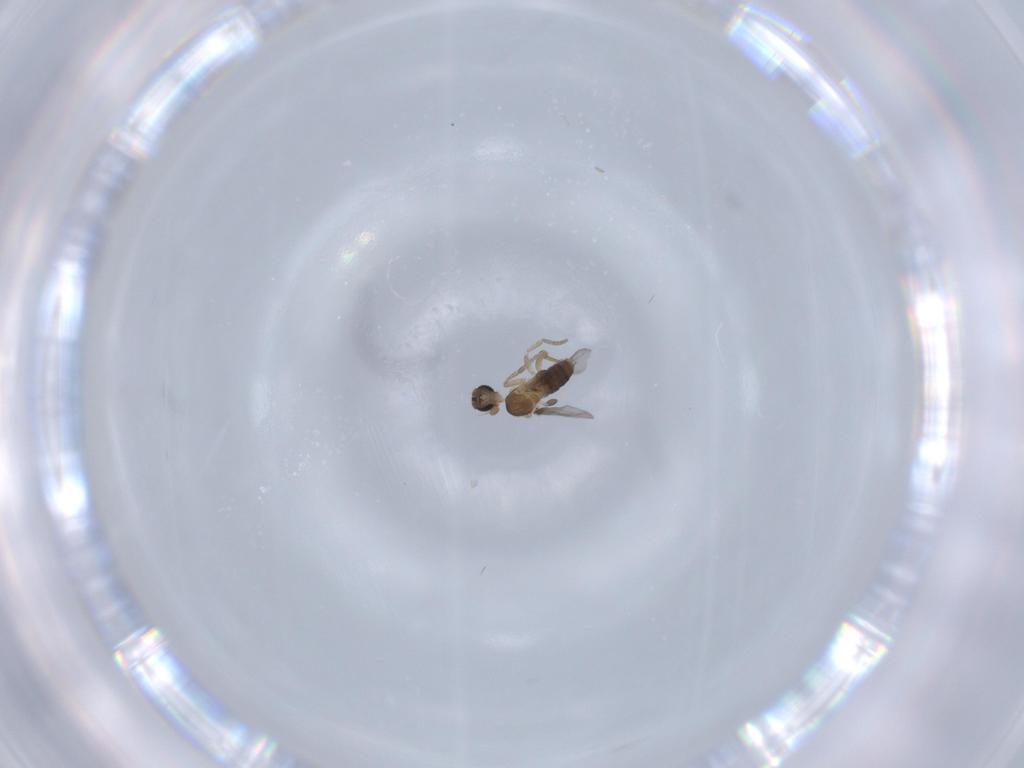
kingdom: Animalia
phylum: Arthropoda
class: Insecta
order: Diptera
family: Phoridae
